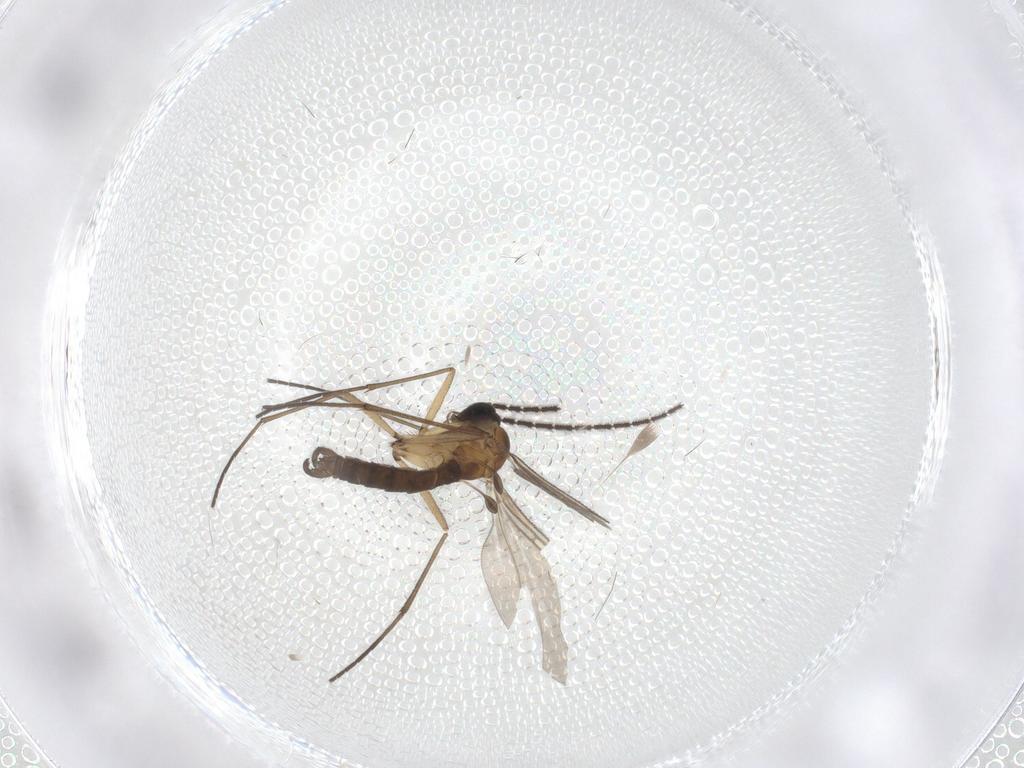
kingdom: Animalia
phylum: Arthropoda
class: Insecta
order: Diptera
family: Sciaridae
